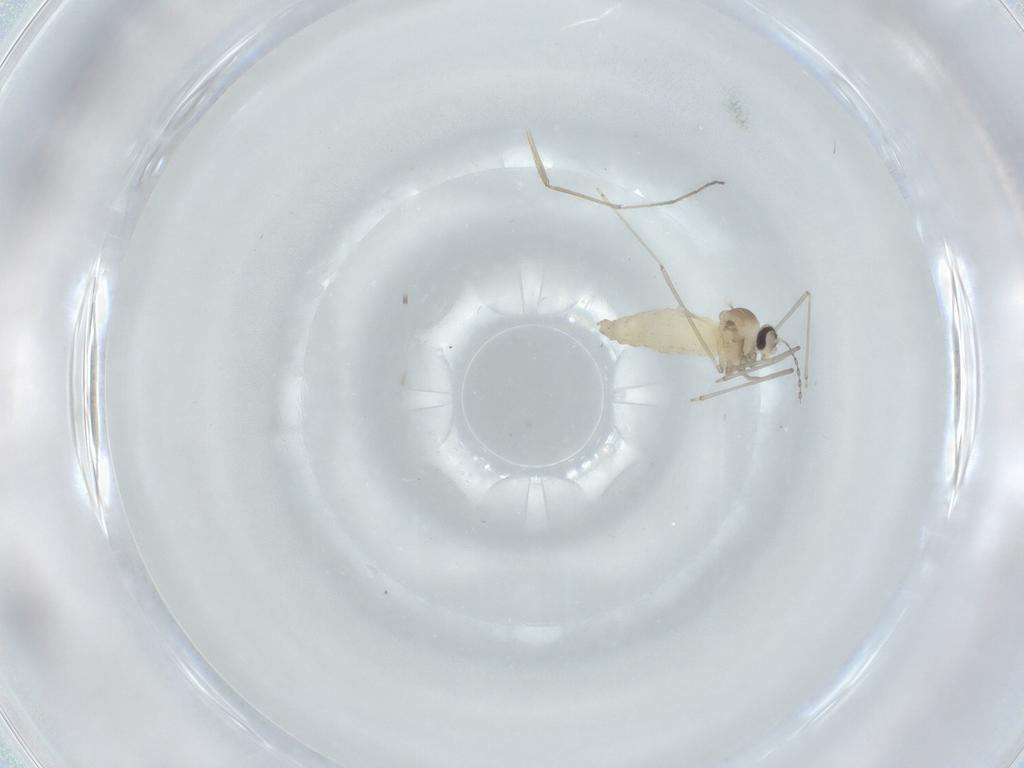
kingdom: Animalia
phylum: Arthropoda
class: Insecta
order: Diptera
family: Cecidomyiidae
